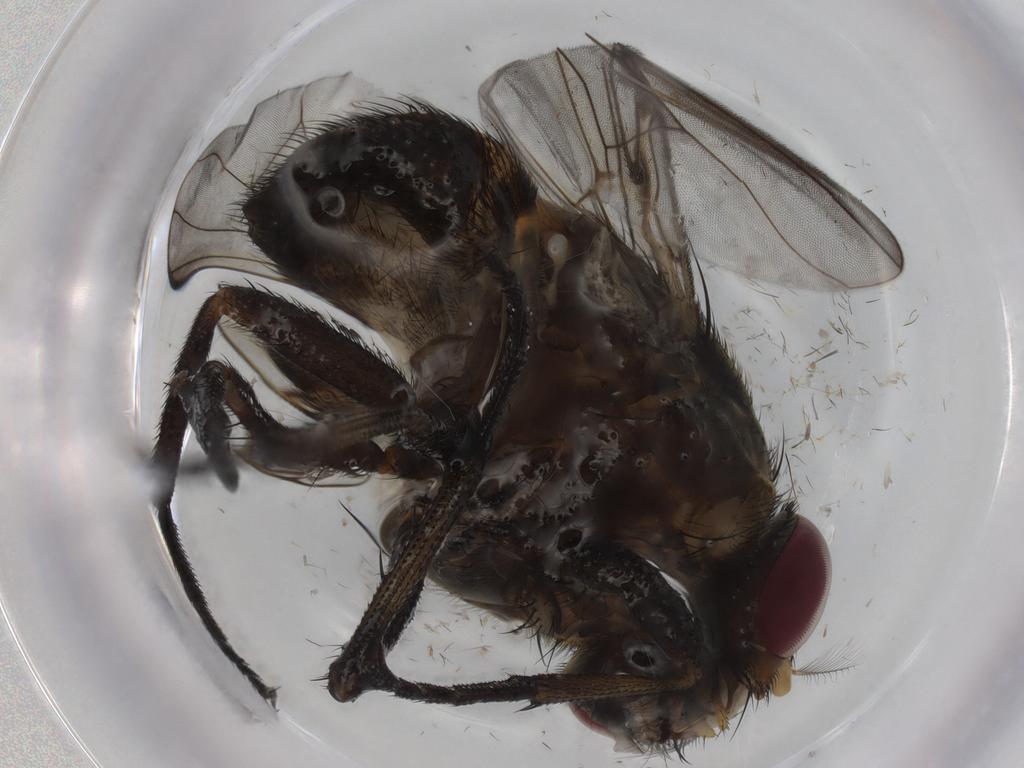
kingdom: Animalia
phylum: Arthropoda
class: Insecta
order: Diptera
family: Muscidae
